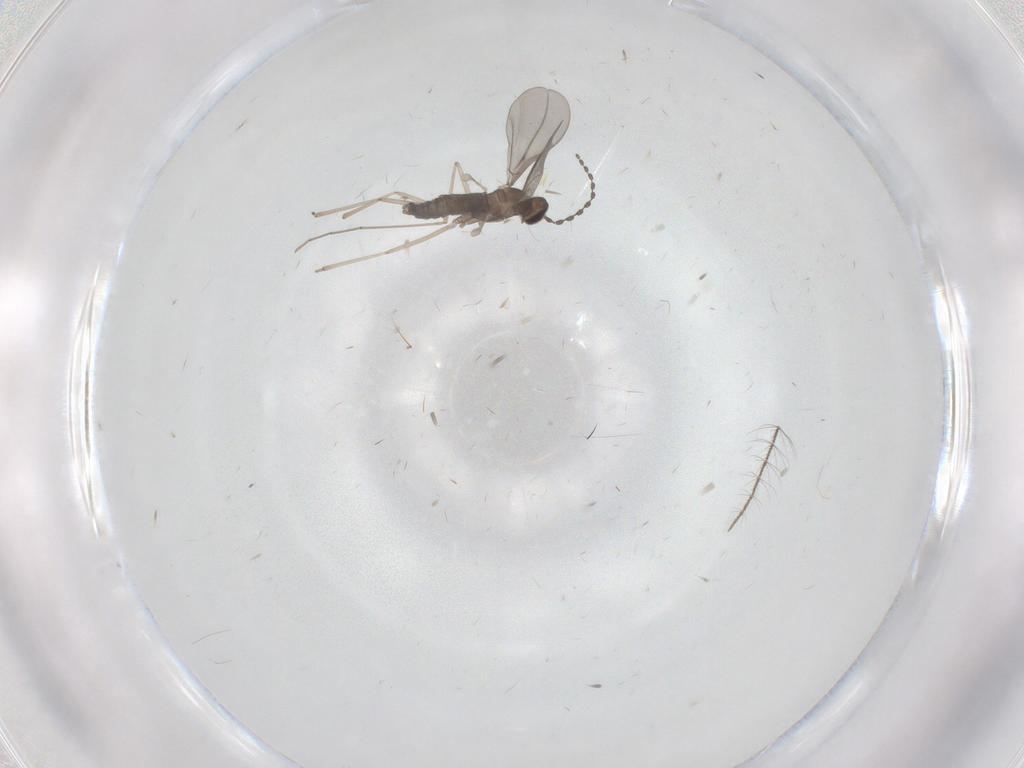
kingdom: Animalia
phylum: Arthropoda
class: Insecta
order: Diptera
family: Culicidae
